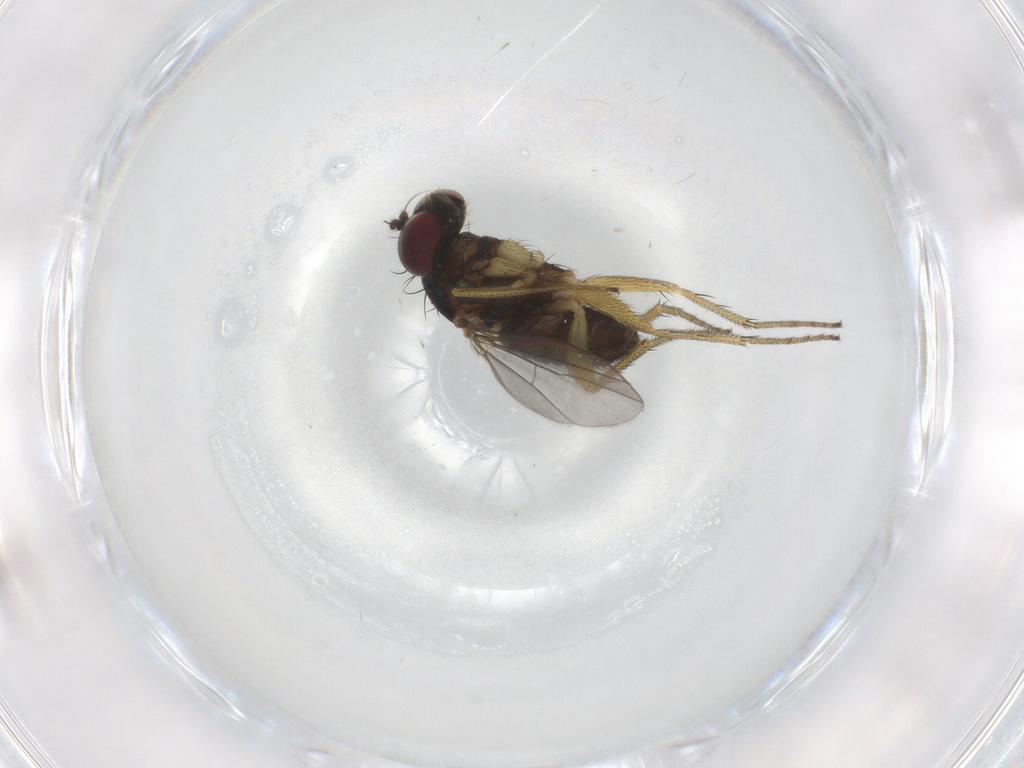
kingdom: Animalia
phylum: Arthropoda
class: Insecta
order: Diptera
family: Dolichopodidae
